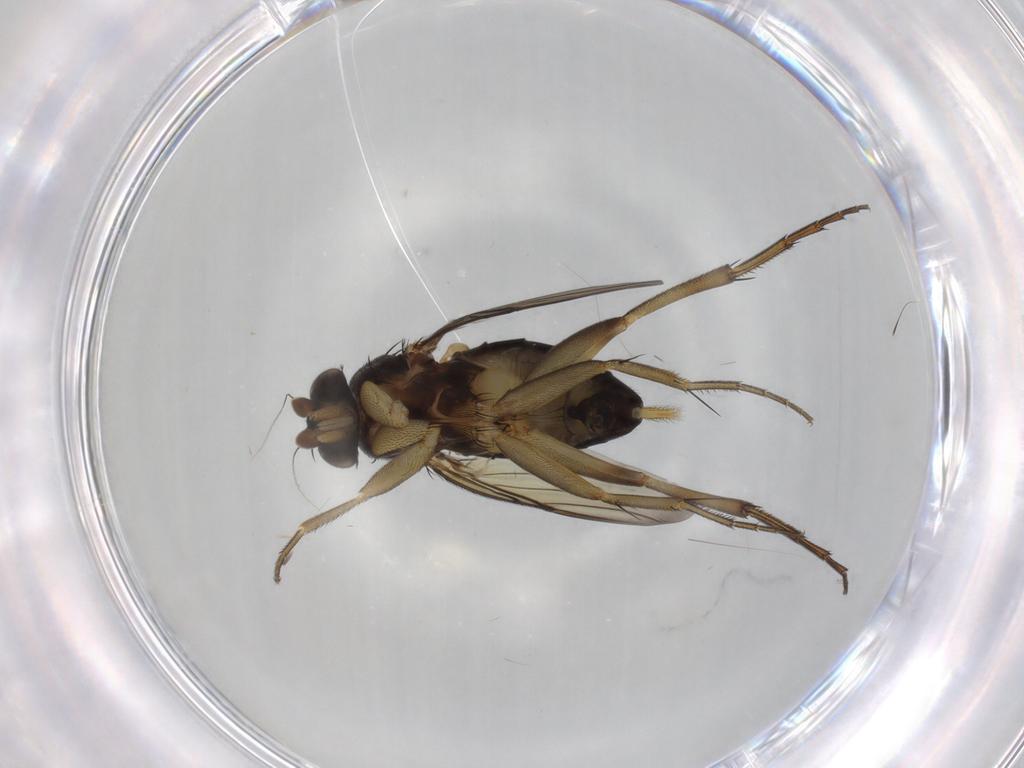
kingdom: Animalia
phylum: Arthropoda
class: Insecta
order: Diptera
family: Phoridae
